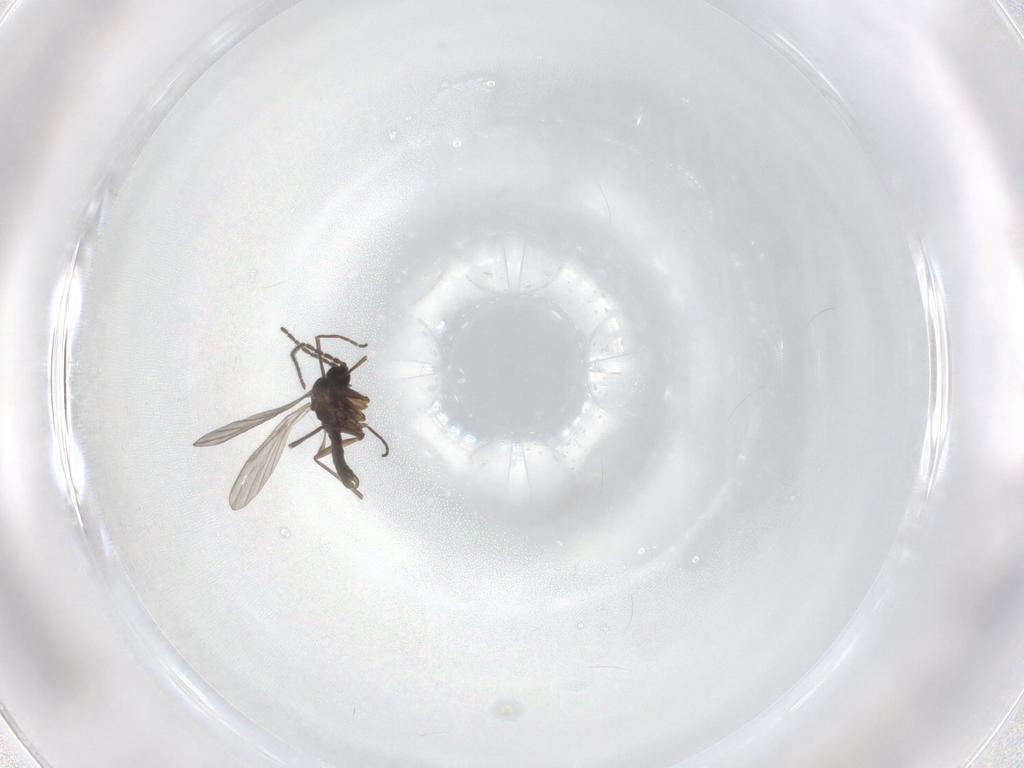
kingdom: Animalia
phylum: Arthropoda
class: Insecta
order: Diptera
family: Sciaridae
